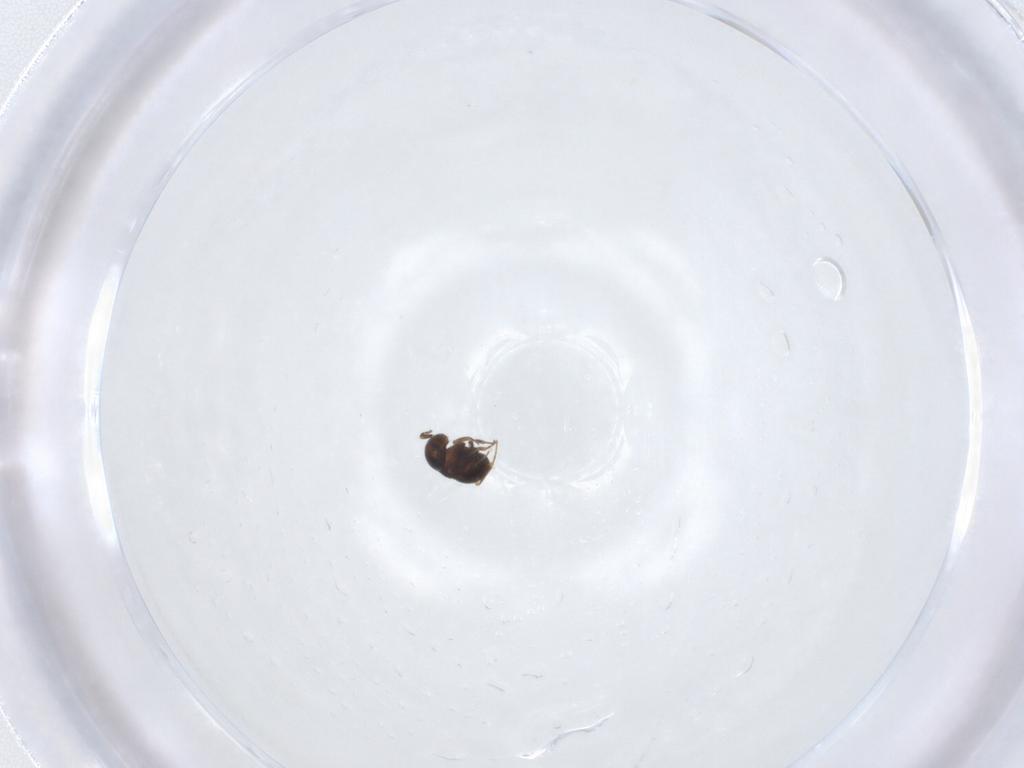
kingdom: Animalia
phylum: Arthropoda
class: Insecta
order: Hymenoptera
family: Scelionidae
